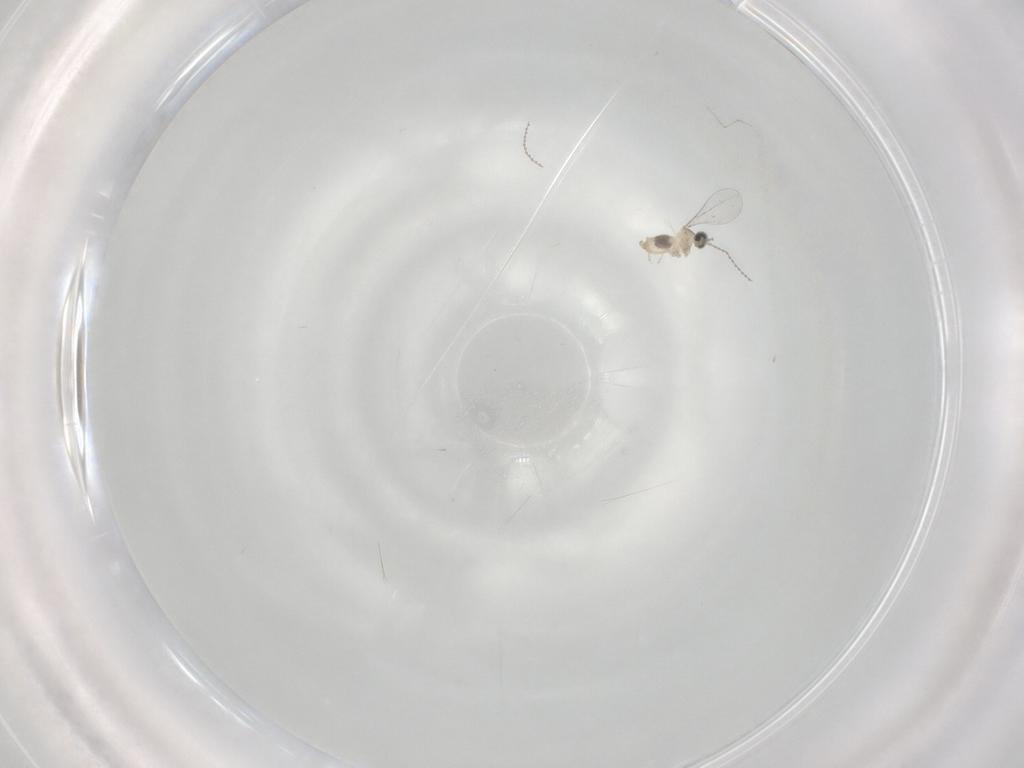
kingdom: Animalia
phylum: Arthropoda
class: Insecta
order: Diptera
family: Cecidomyiidae
